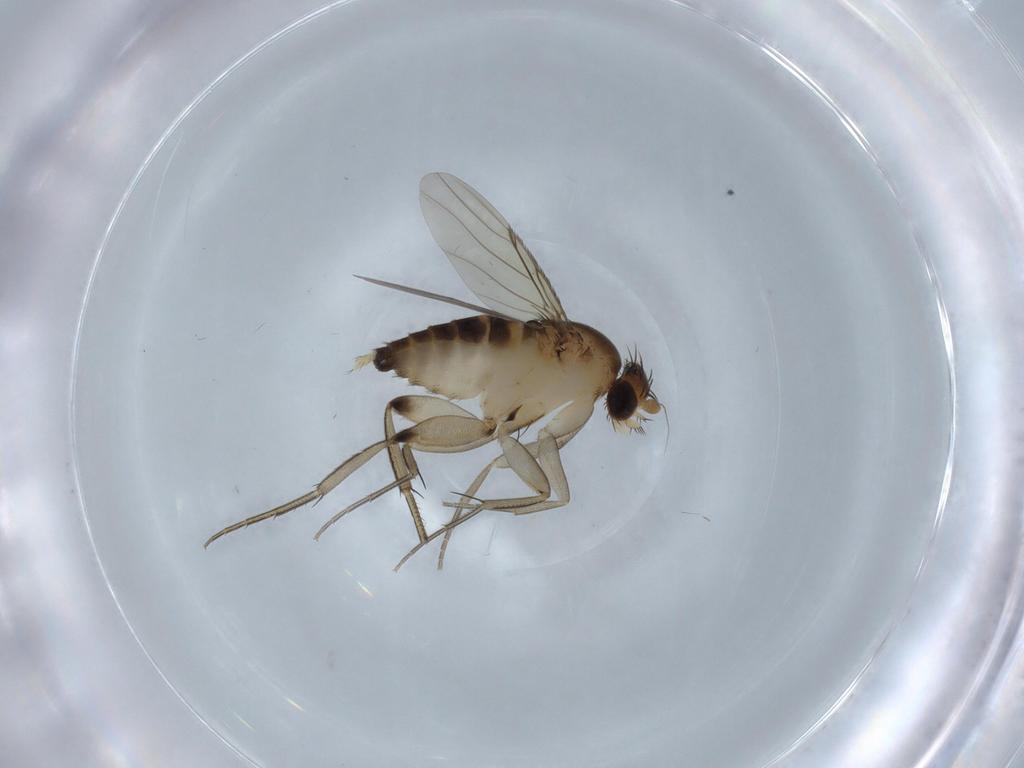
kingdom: Animalia
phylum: Arthropoda
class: Insecta
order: Diptera
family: Phoridae
